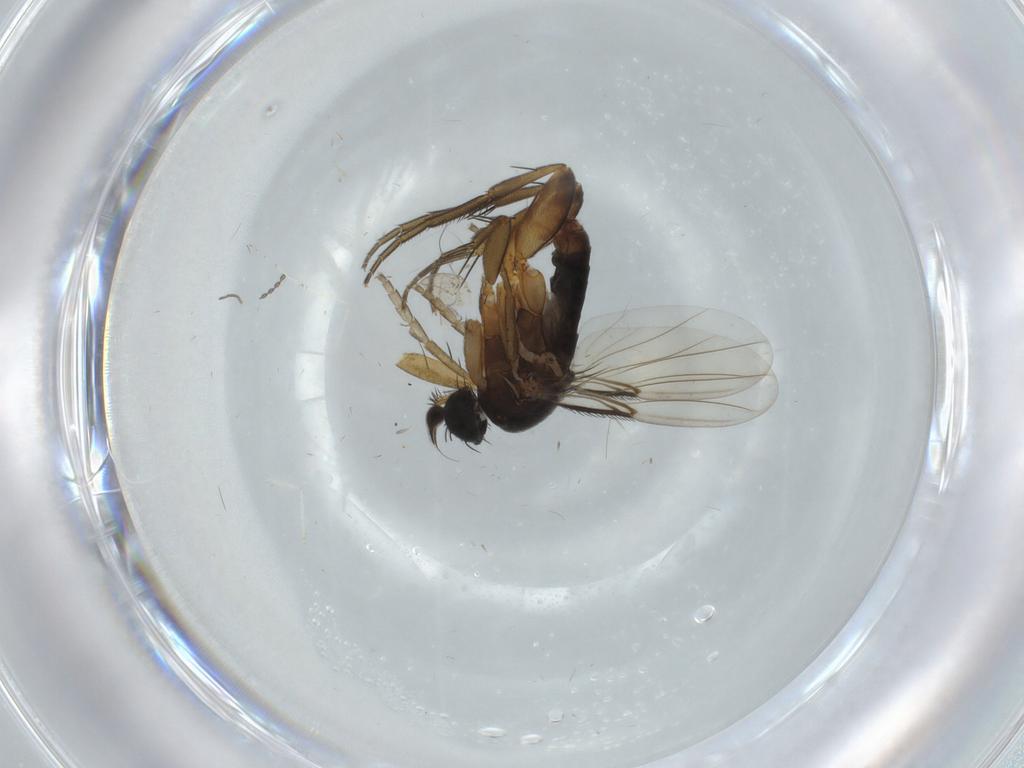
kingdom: Animalia
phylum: Arthropoda
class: Insecta
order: Diptera
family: Phoridae
